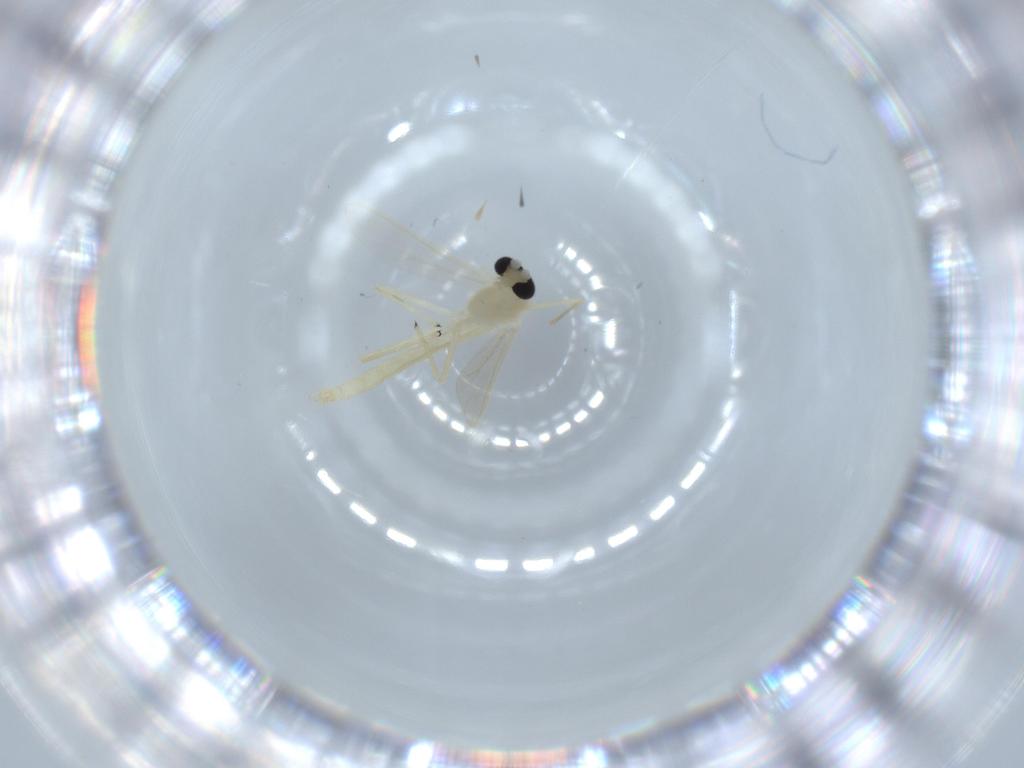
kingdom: Animalia
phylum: Arthropoda
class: Insecta
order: Diptera
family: Chironomidae
